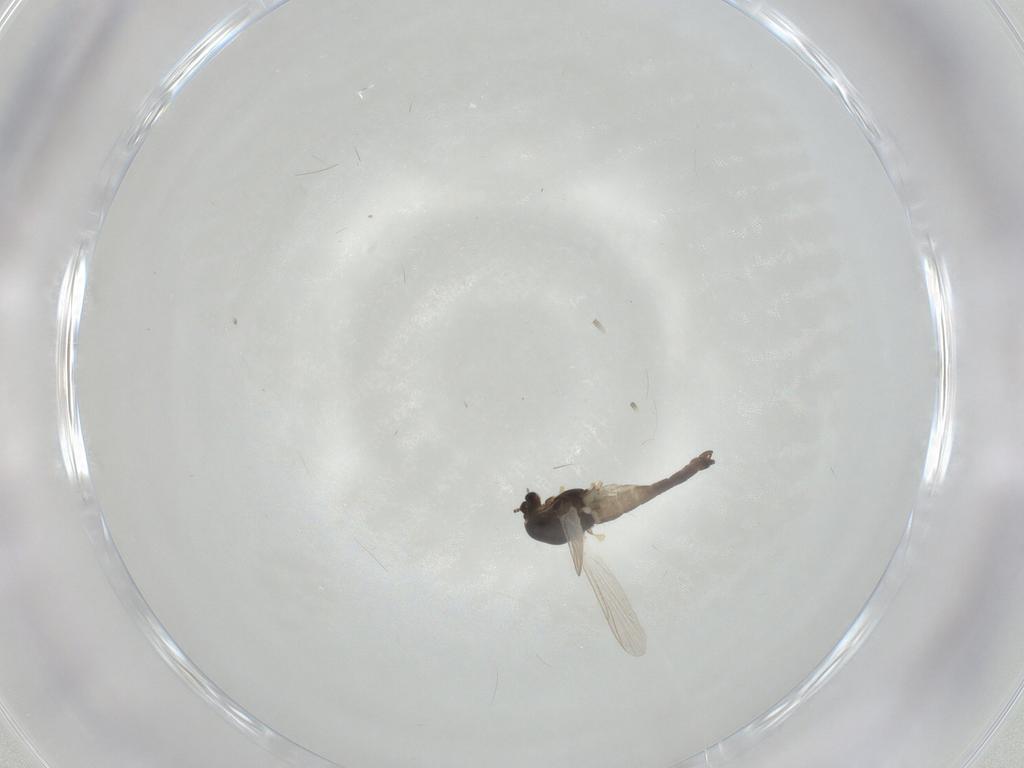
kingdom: Animalia
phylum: Arthropoda
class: Insecta
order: Diptera
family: Chironomidae
